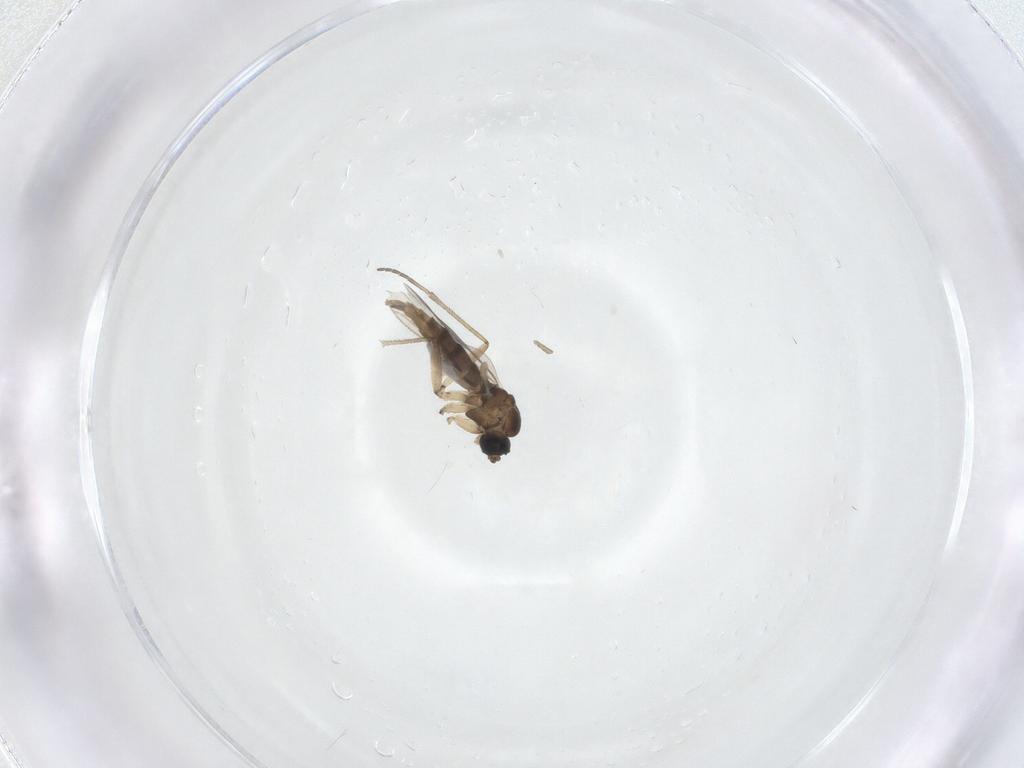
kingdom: Animalia
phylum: Arthropoda
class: Insecta
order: Diptera
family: Sciaridae
